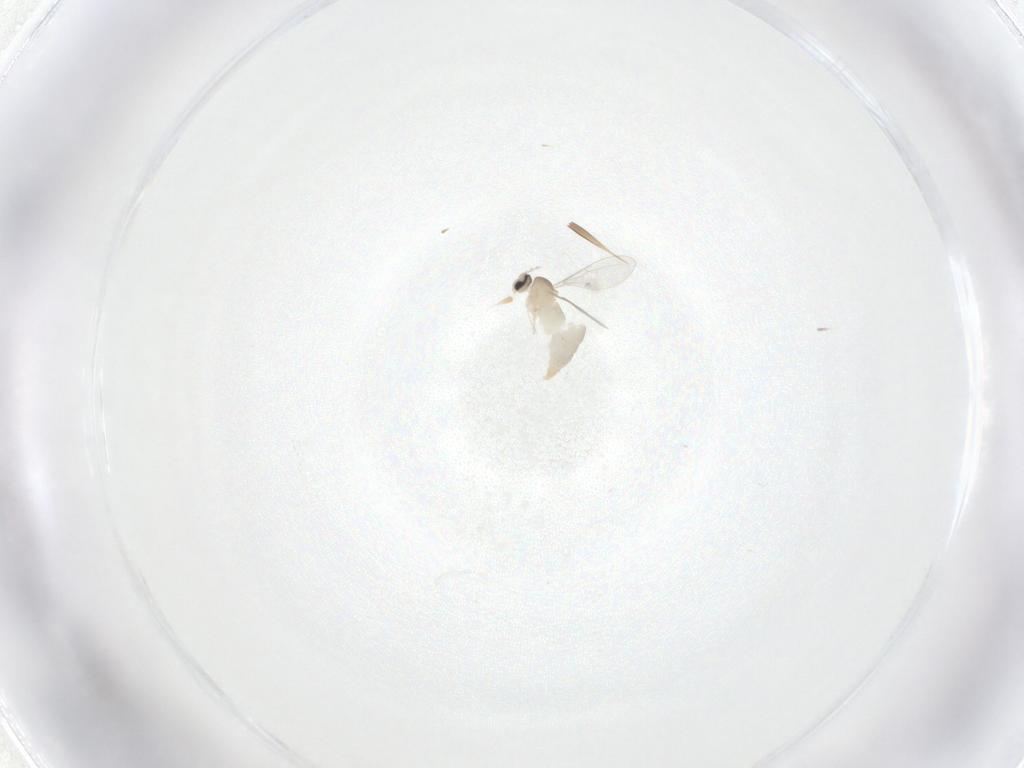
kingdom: Animalia
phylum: Arthropoda
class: Insecta
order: Diptera
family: Cecidomyiidae
